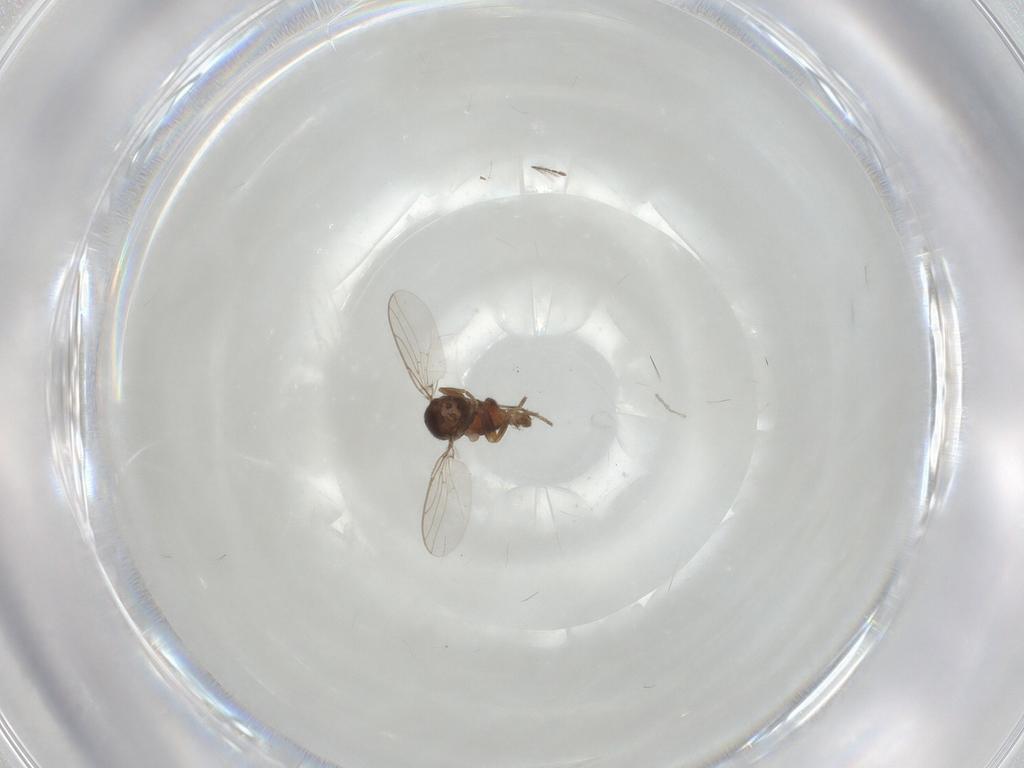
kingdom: Animalia
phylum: Arthropoda
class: Insecta
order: Diptera
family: Chloropidae
